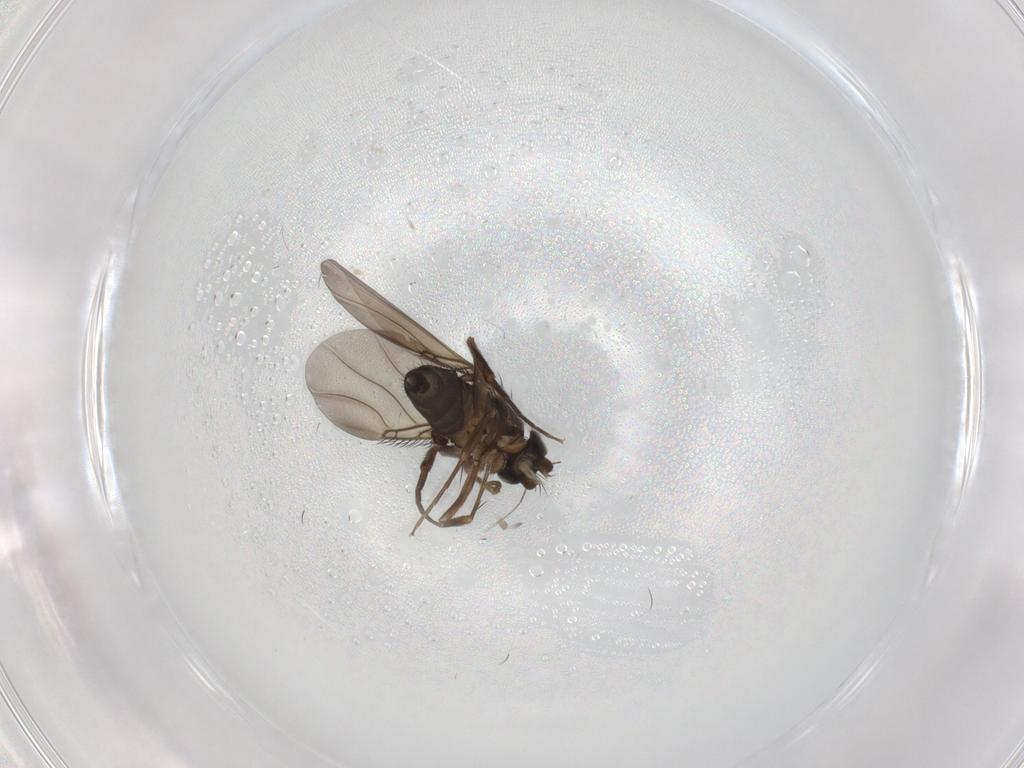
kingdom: Animalia
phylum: Arthropoda
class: Insecta
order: Diptera
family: Phoridae
